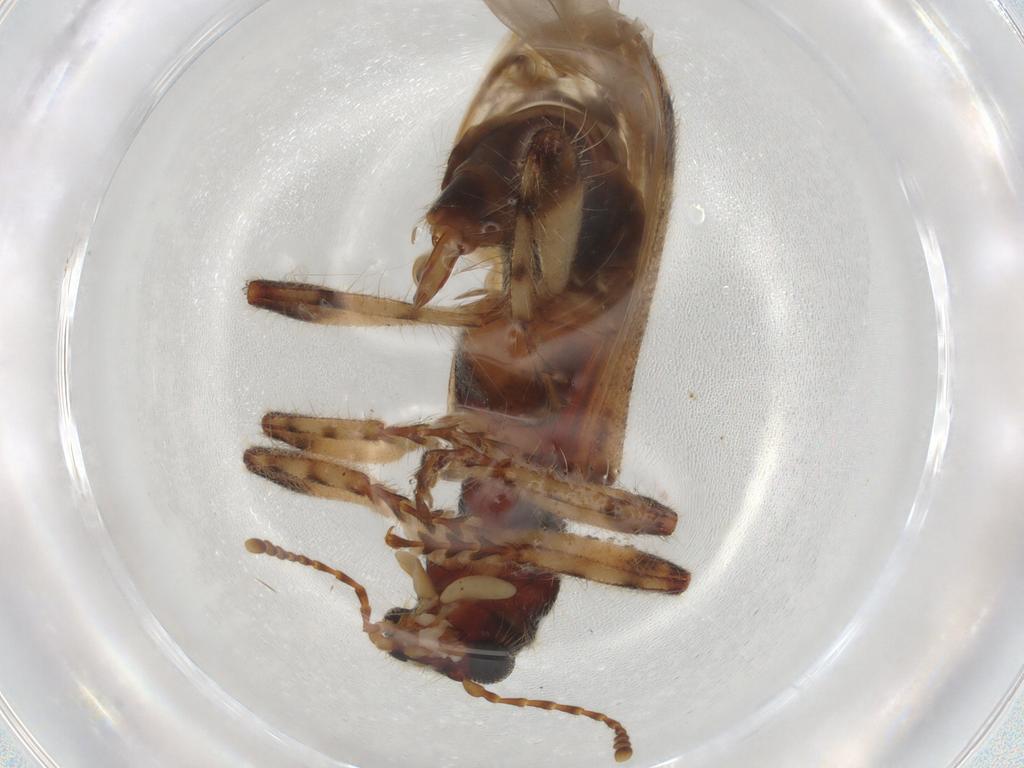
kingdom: Animalia
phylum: Arthropoda
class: Insecta
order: Coleoptera
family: Cleridae
